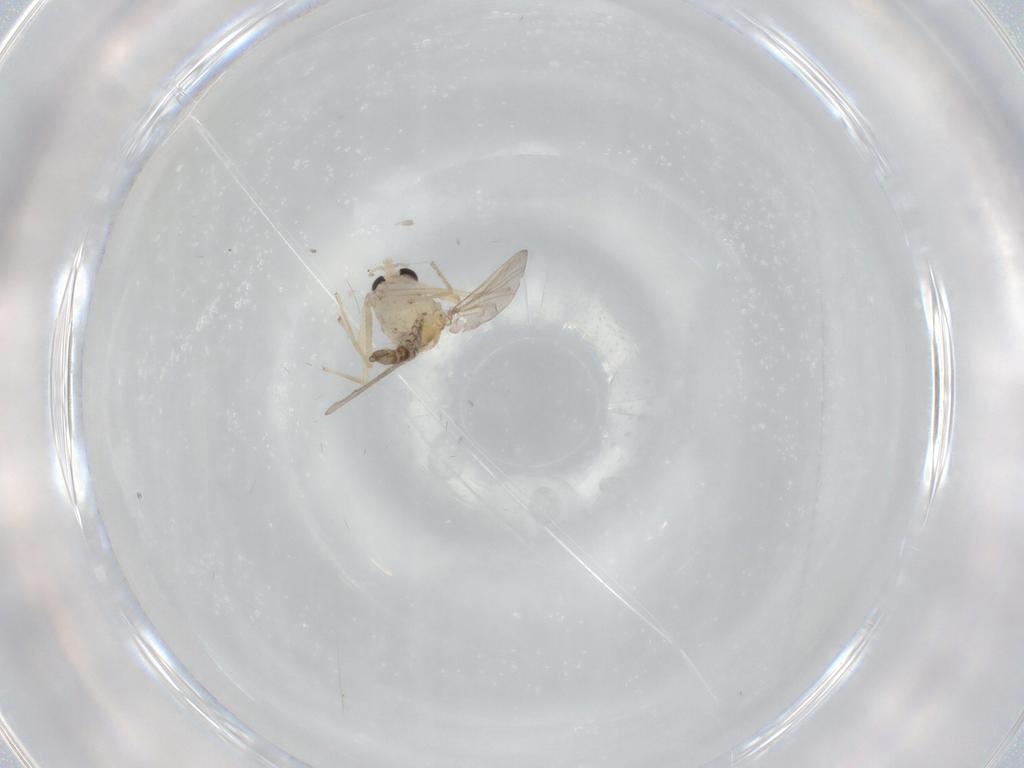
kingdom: Animalia
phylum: Arthropoda
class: Insecta
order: Diptera
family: Chironomidae
